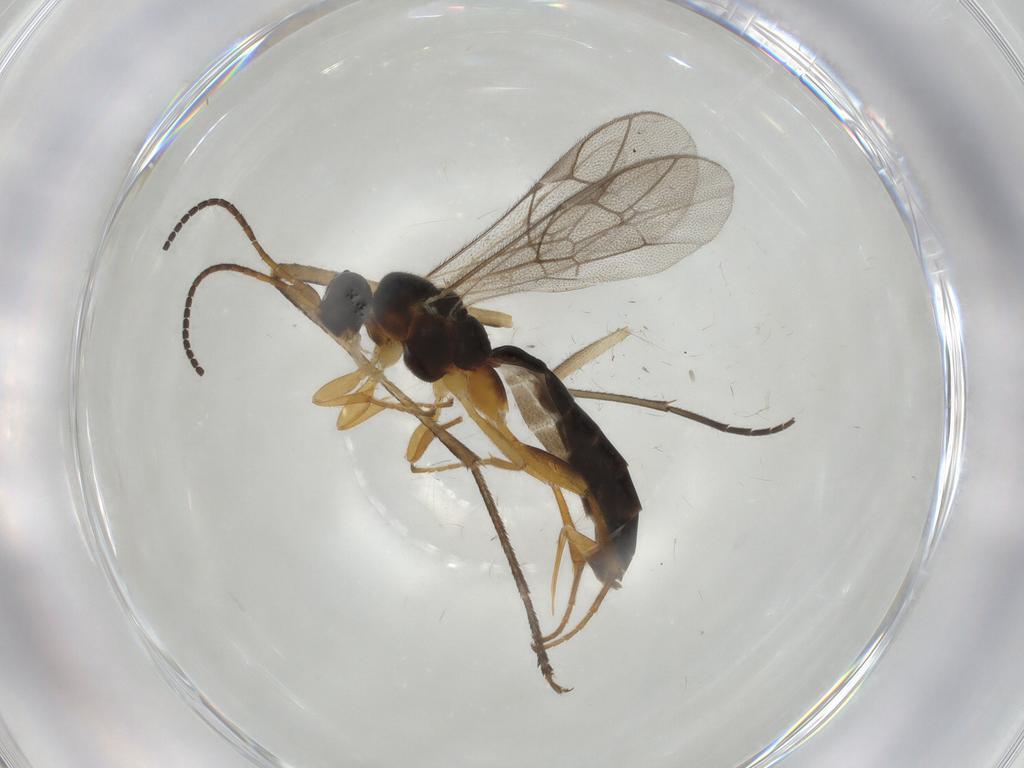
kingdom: Animalia
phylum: Arthropoda
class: Insecta
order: Hymenoptera
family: Ichneumonidae
